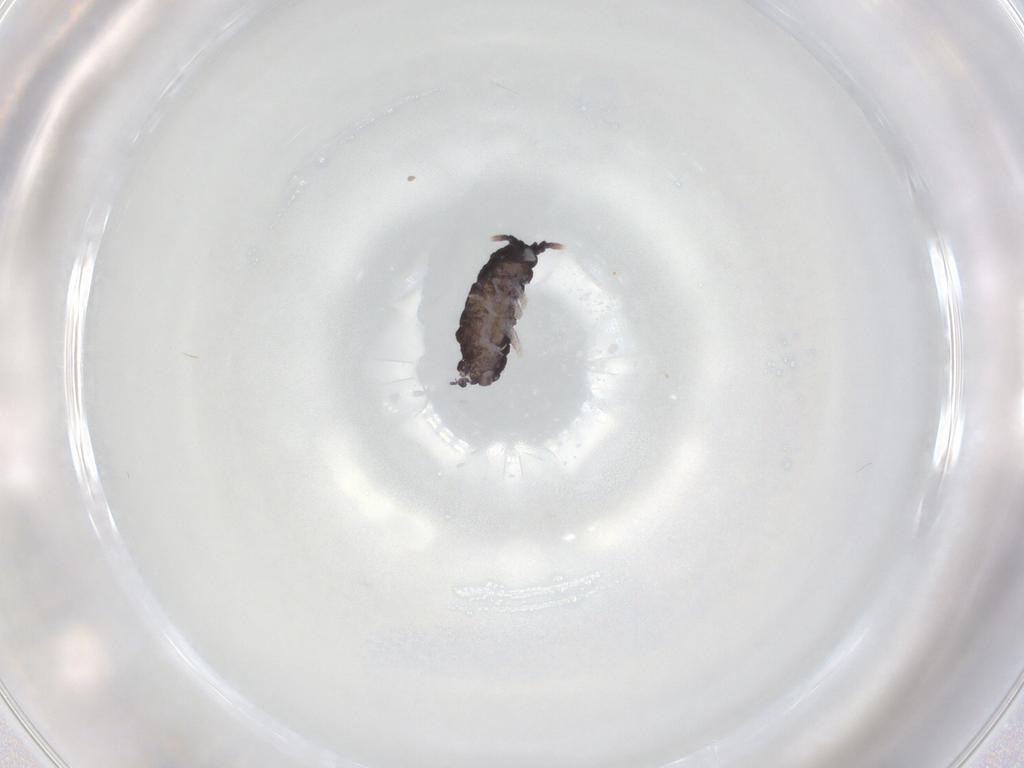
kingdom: Animalia
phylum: Arthropoda
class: Collembola
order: Poduromorpha
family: Neanuridae
